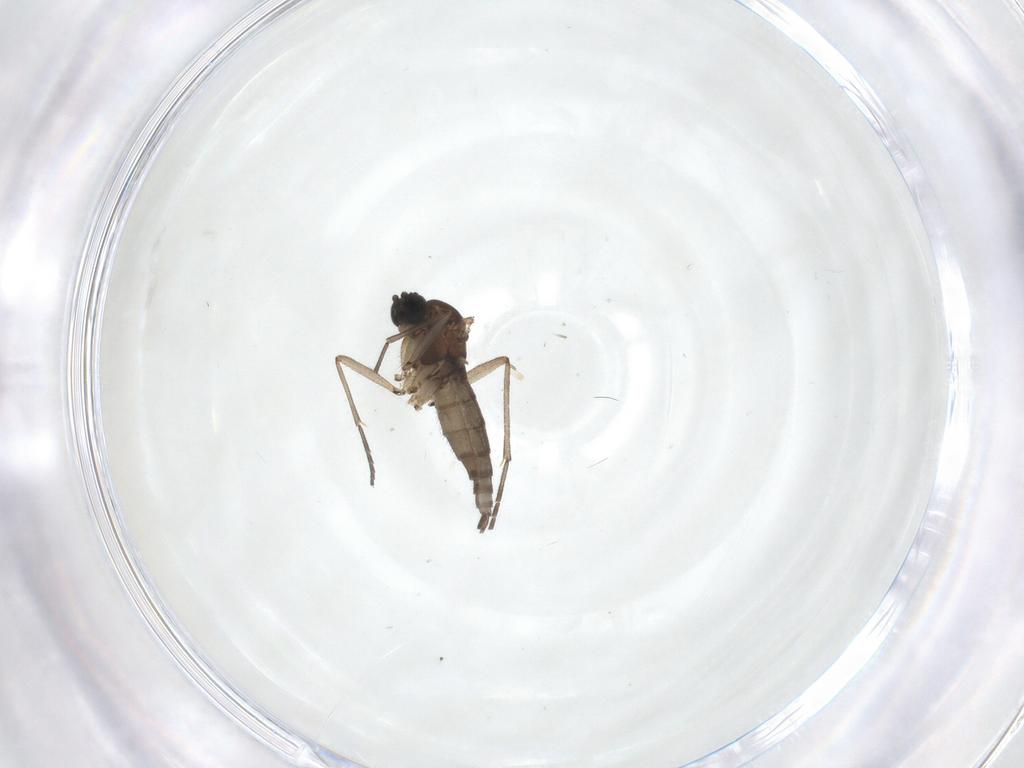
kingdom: Animalia
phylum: Arthropoda
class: Insecta
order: Diptera
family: Sciaridae
